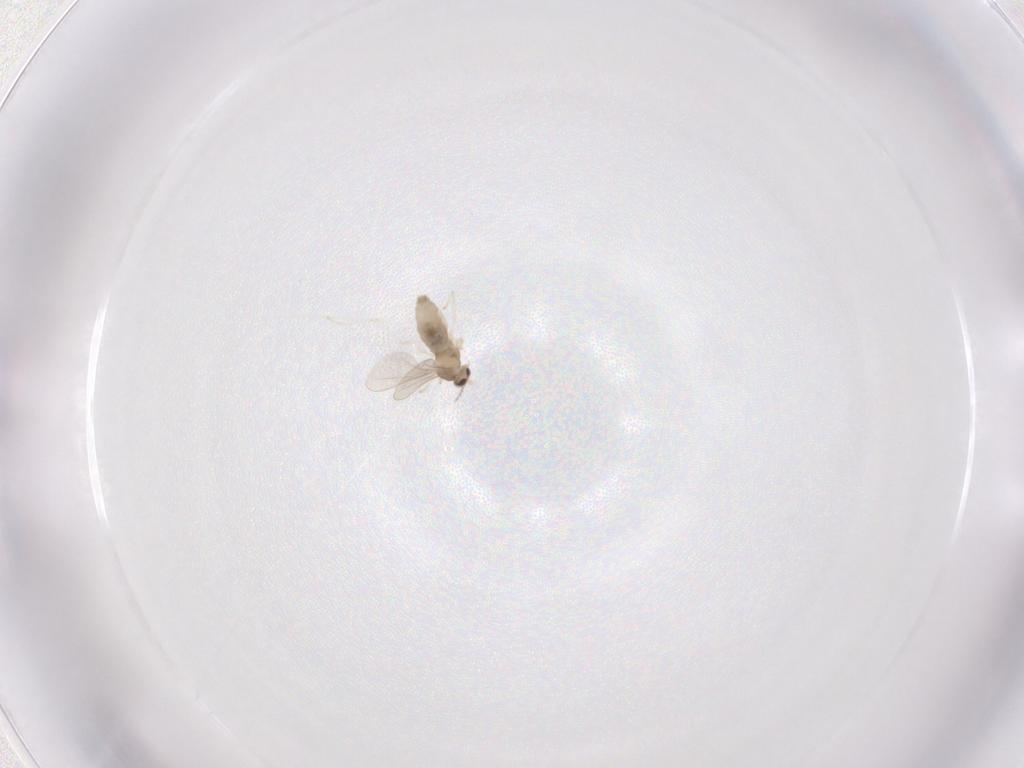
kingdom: Animalia
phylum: Arthropoda
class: Insecta
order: Diptera
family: Cecidomyiidae
